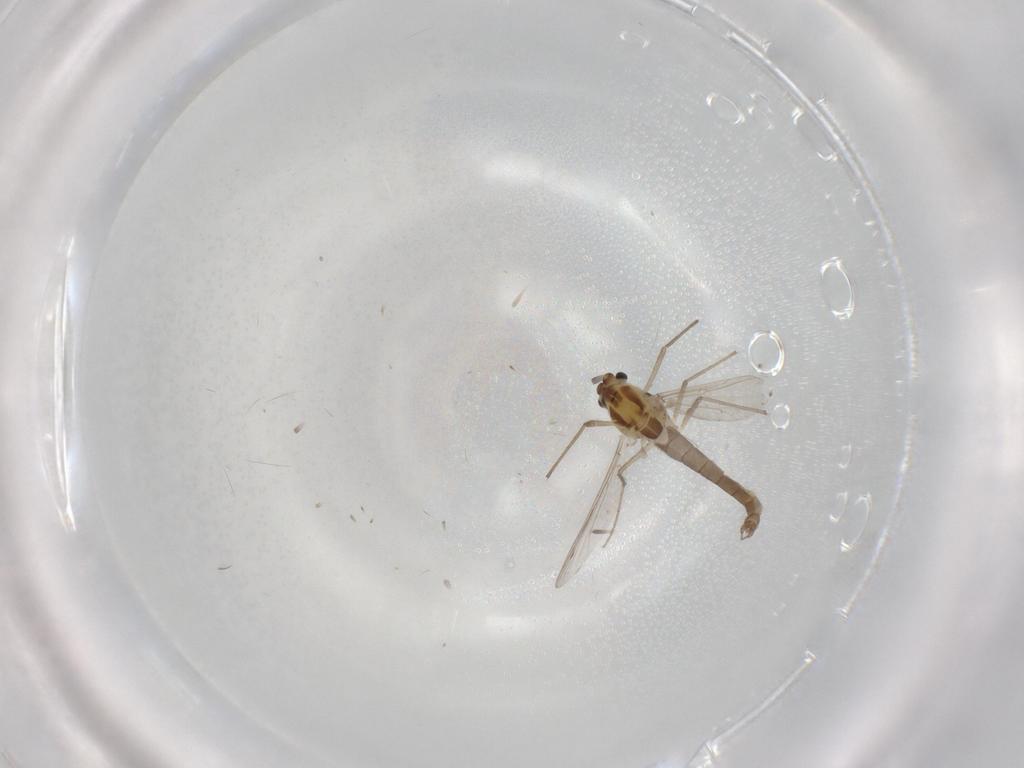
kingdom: Animalia
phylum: Arthropoda
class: Insecta
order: Diptera
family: Chironomidae
